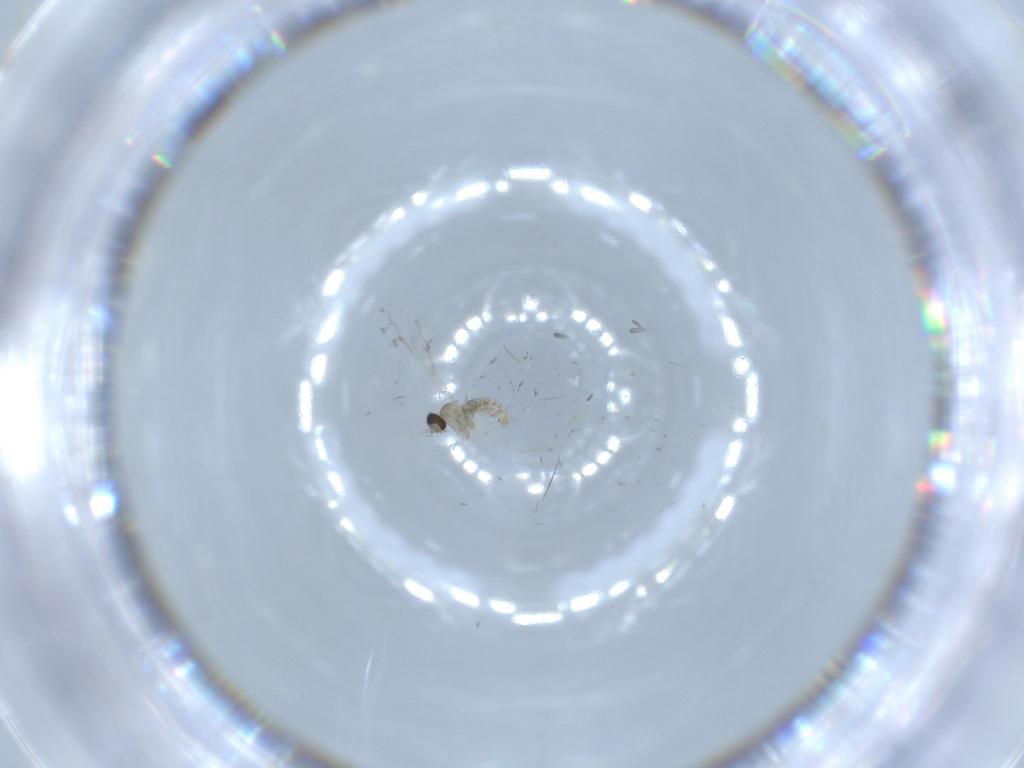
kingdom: Animalia
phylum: Arthropoda
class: Insecta
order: Diptera
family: Cecidomyiidae
